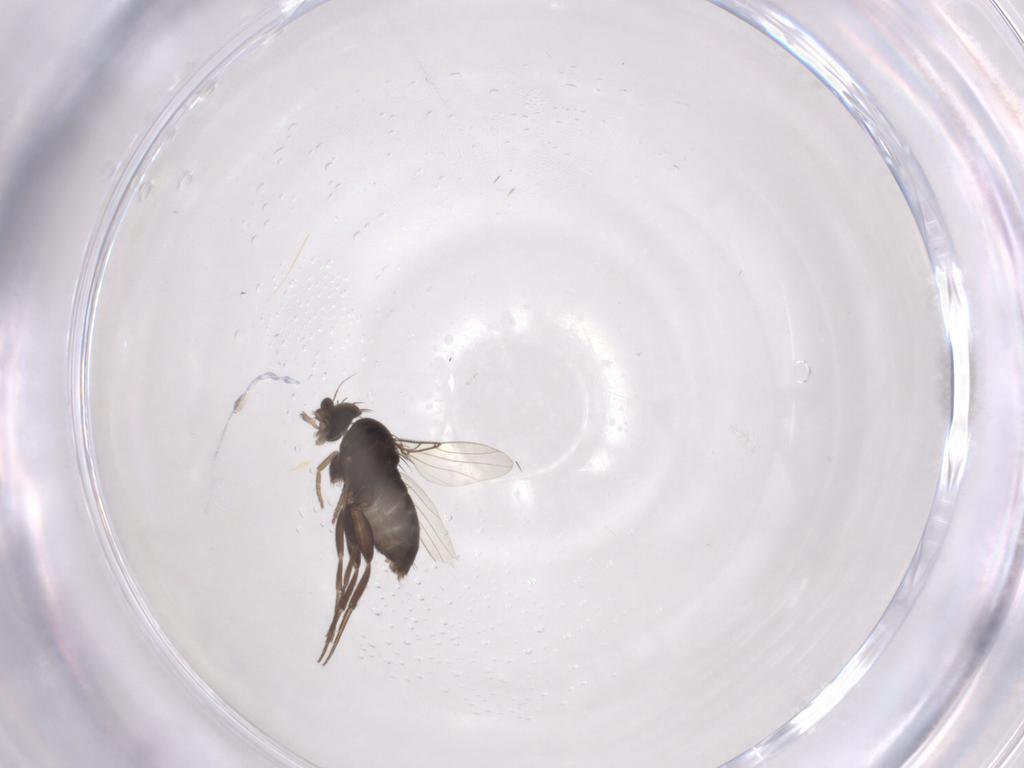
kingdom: Animalia
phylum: Arthropoda
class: Insecta
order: Diptera
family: Phoridae
